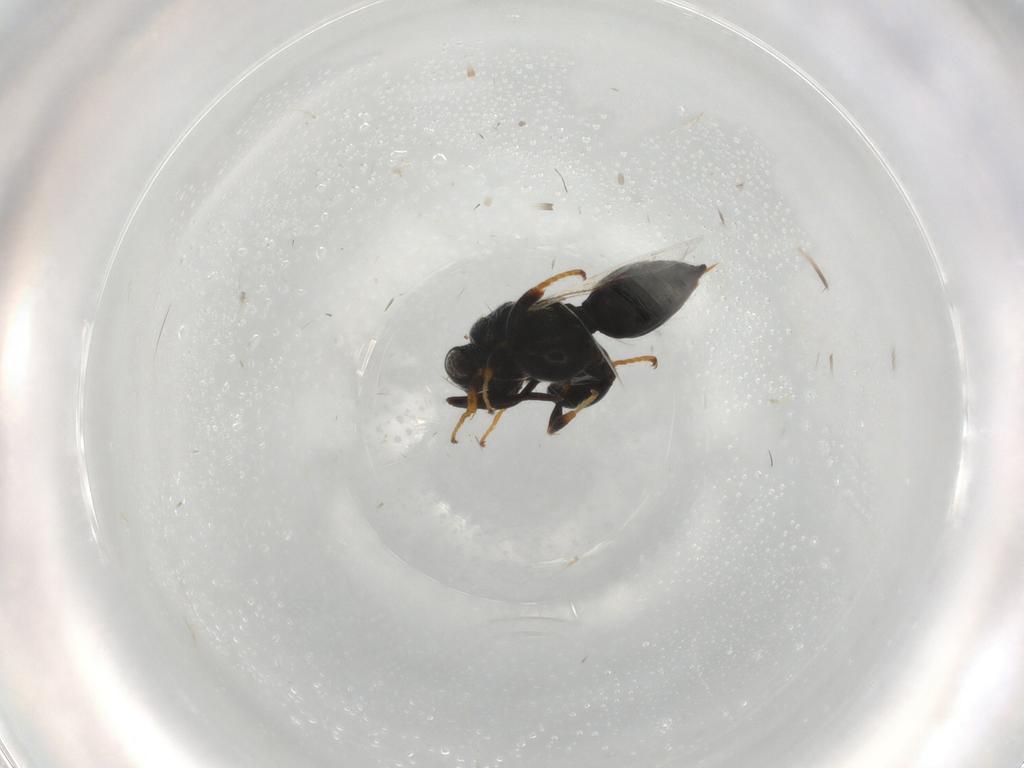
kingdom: Animalia
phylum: Arthropoda
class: Insecta
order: Hymenoptera
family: Chalcididae
